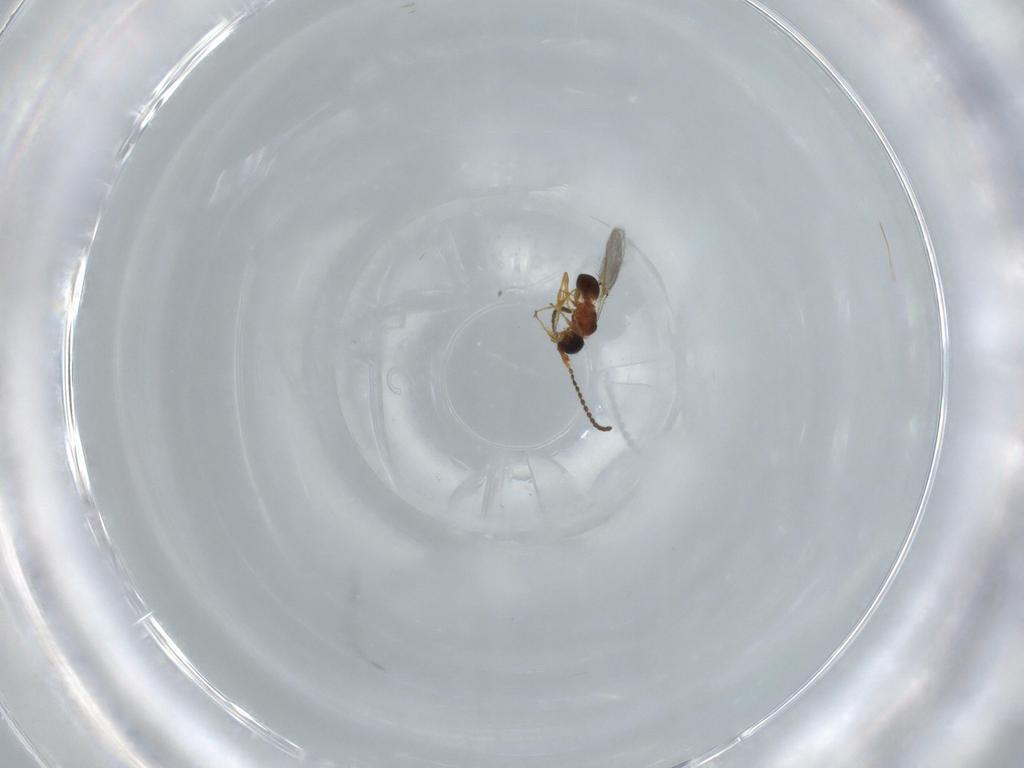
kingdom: Animalia
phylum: Arthropoda
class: Insecta
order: Hymenoptera
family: Diapriidae
